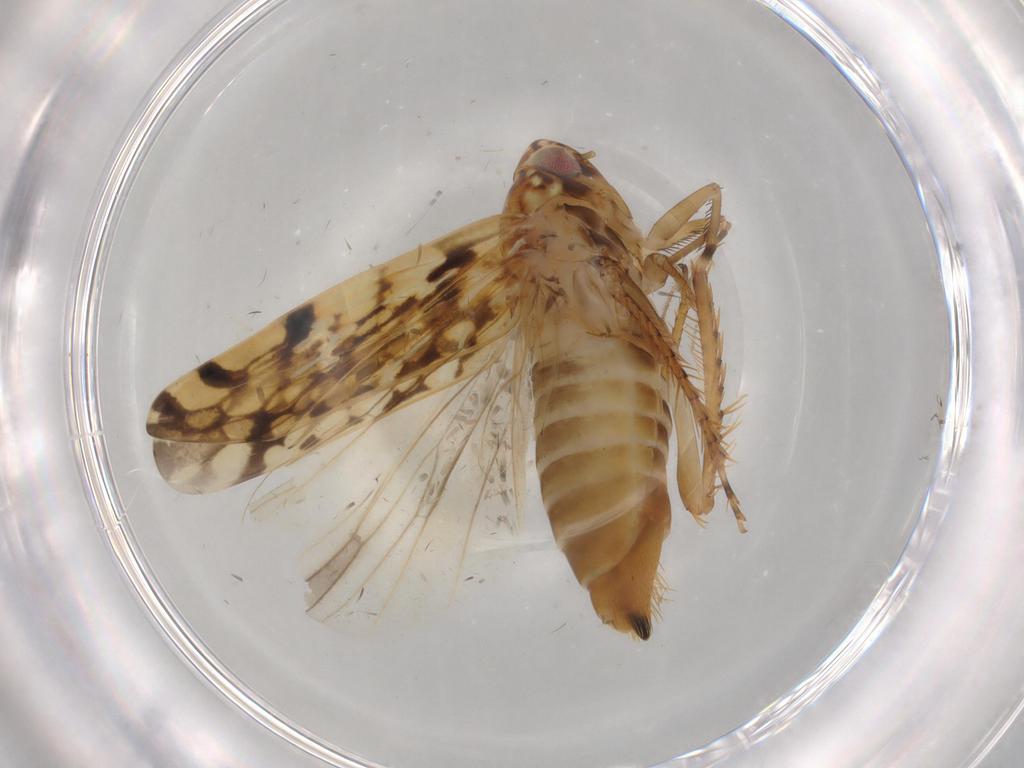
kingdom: Animalia
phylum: Arthropoda
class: Insecta
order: Hemiptera
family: Cicadellidae
